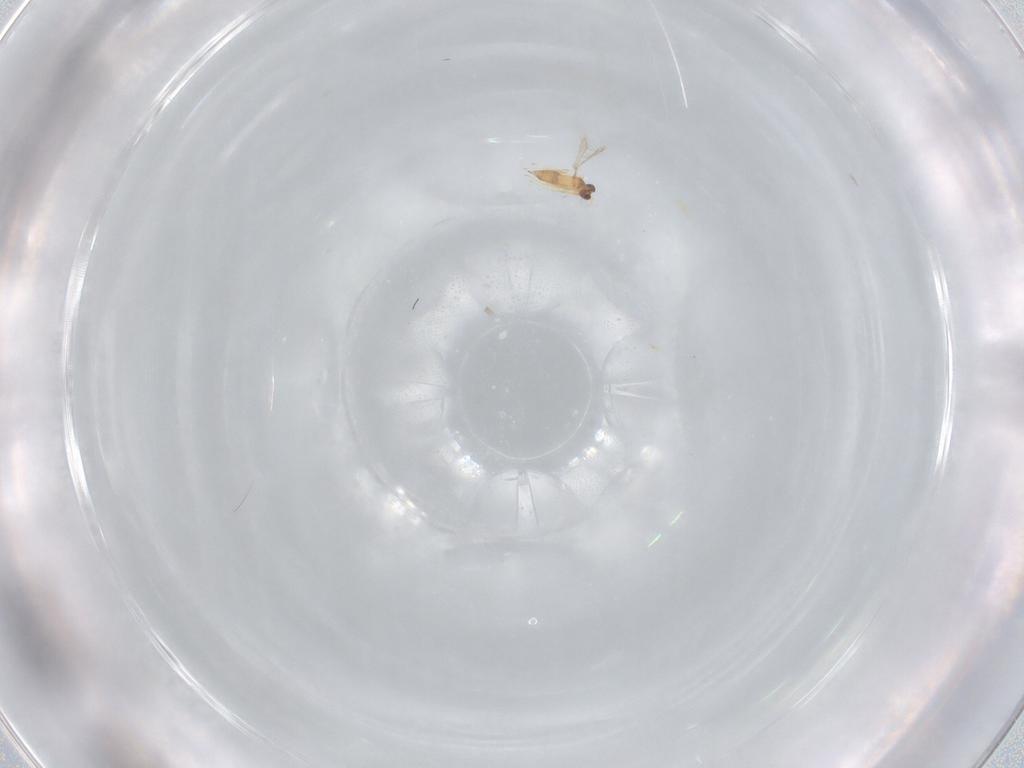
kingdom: Animalia
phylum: Arthropoda
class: Insecta
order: Hymenoptera
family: Mymaridae
